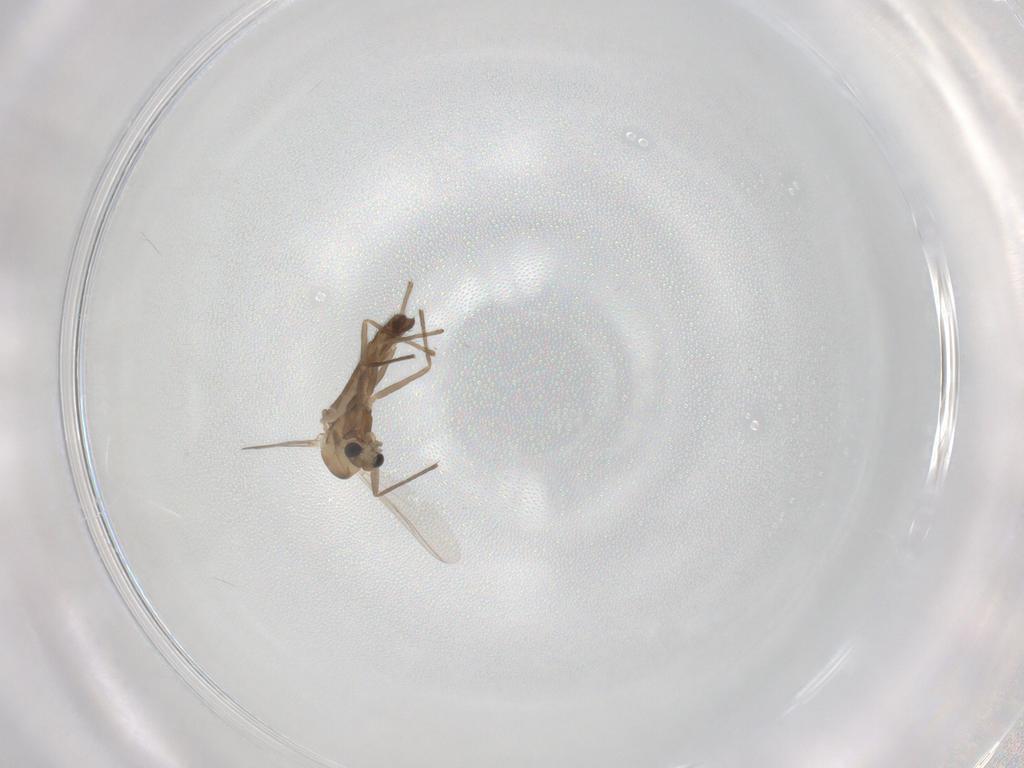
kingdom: Animalia
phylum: Arthropoda
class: Insecta
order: Diptera
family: Chironomidae
